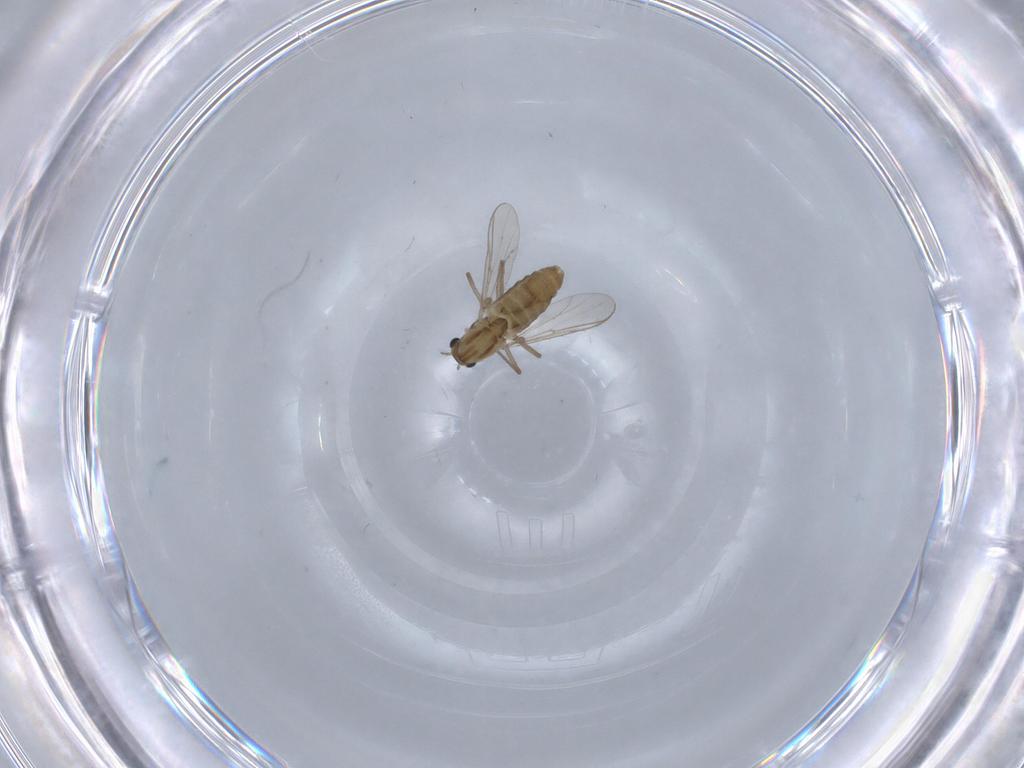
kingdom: Animalia
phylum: Arthropoda
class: Insecta
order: Diptera
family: Chironomidae
